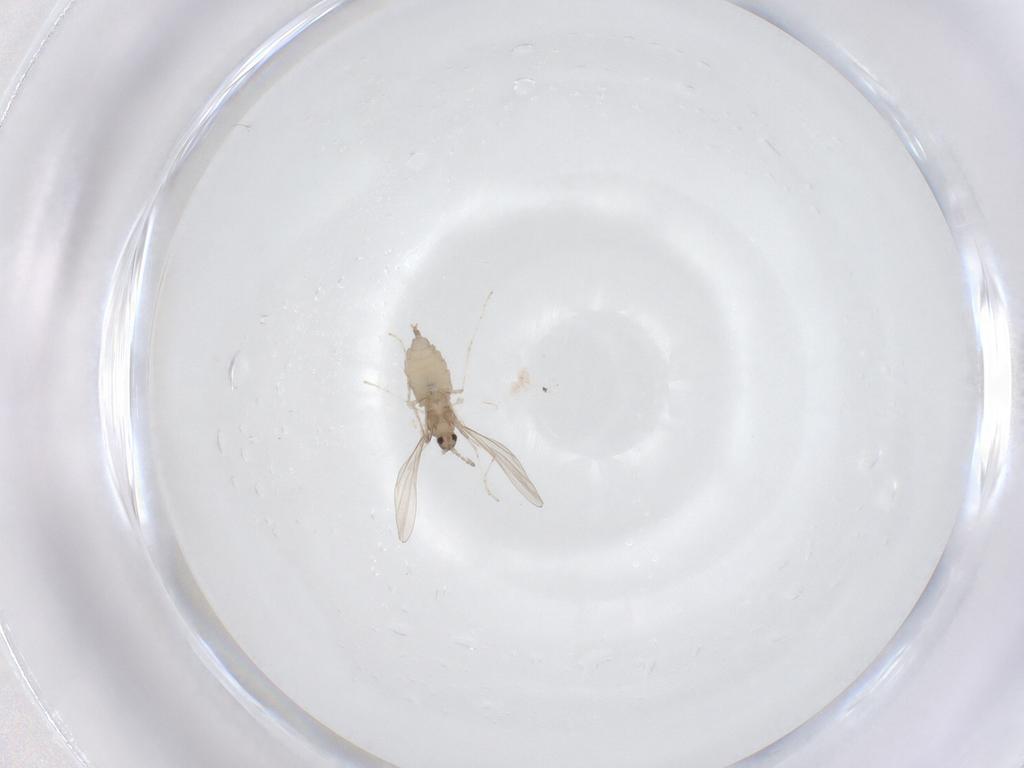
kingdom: Animalia
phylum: Arthropoda
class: Insecta
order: Diptera
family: Cecidomyiidae
